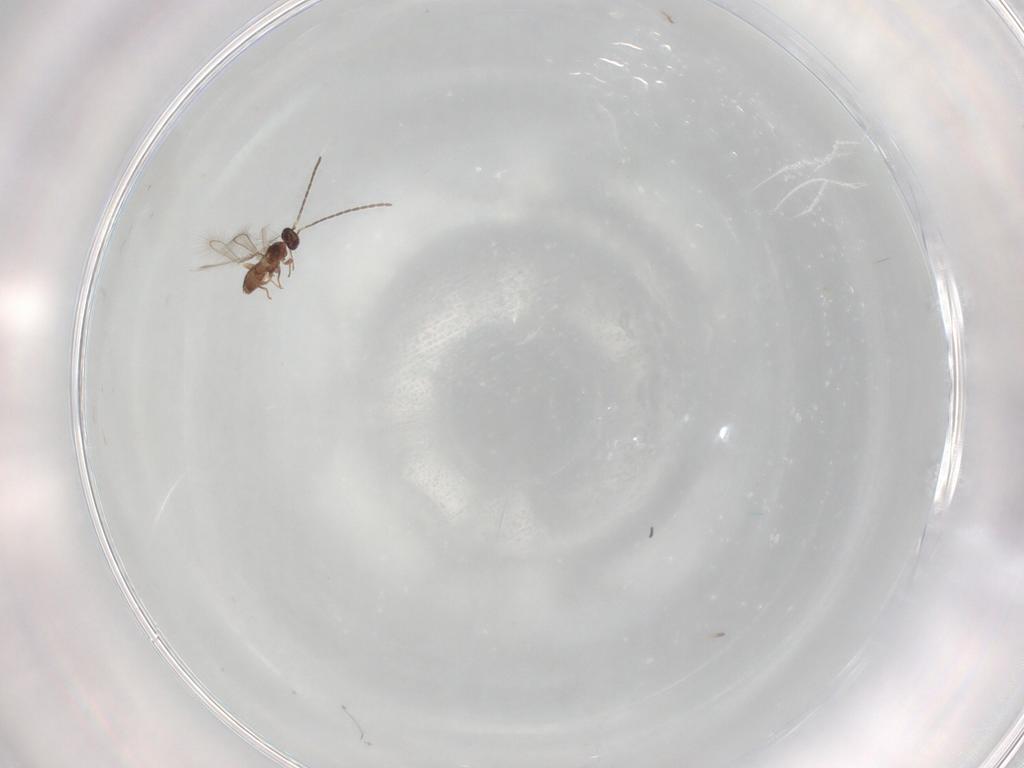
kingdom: Animalia
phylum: Arthropoda
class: Insecta
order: Hymenoptera
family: Mymaridae
